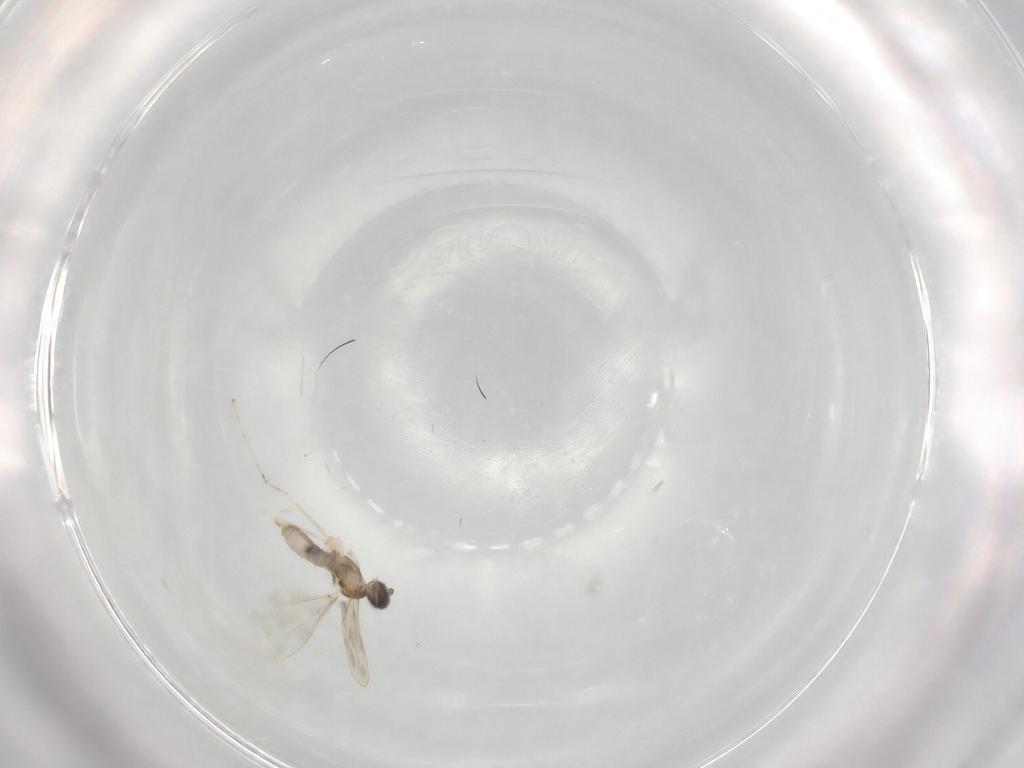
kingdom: Animalia
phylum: Arthropoda
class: Insecta
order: Diptera
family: Cecidomyiidae
